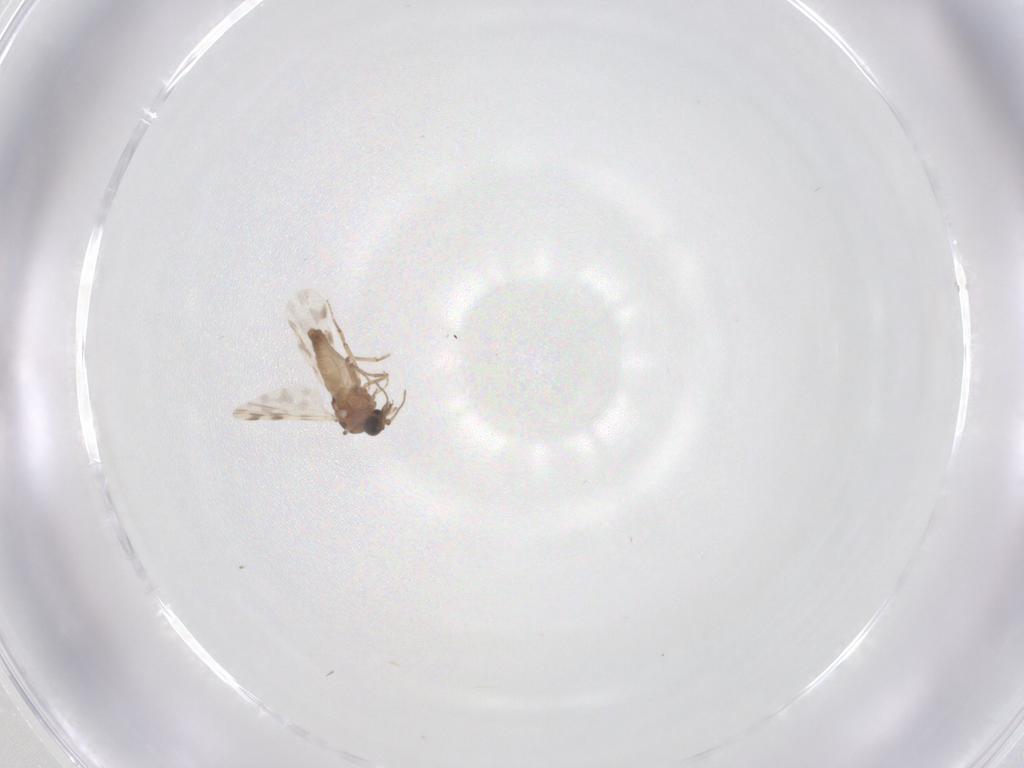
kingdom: Animalia
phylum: Arthropoda
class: Insecta
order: Diptera
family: Ceratopogonidae
